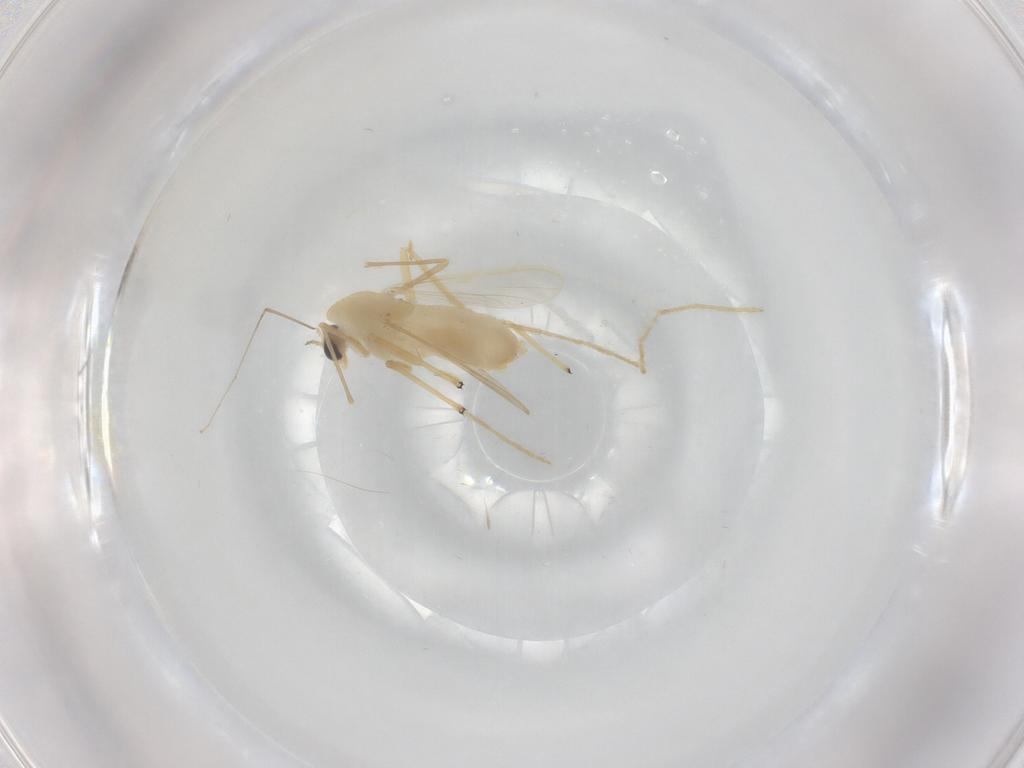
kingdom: Animalia
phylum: Arthropoda
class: Insecta
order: Diptera
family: Chironomidae
